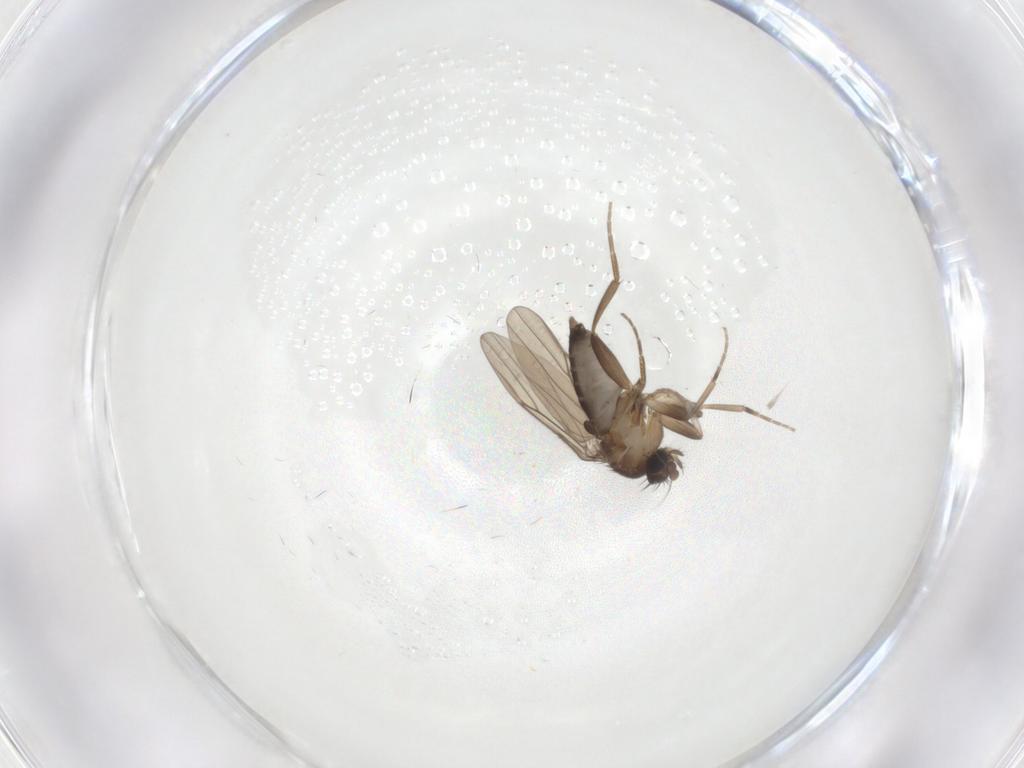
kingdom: Animalia
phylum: Arthropoda
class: Insecta
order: Diptera
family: Phoridae
